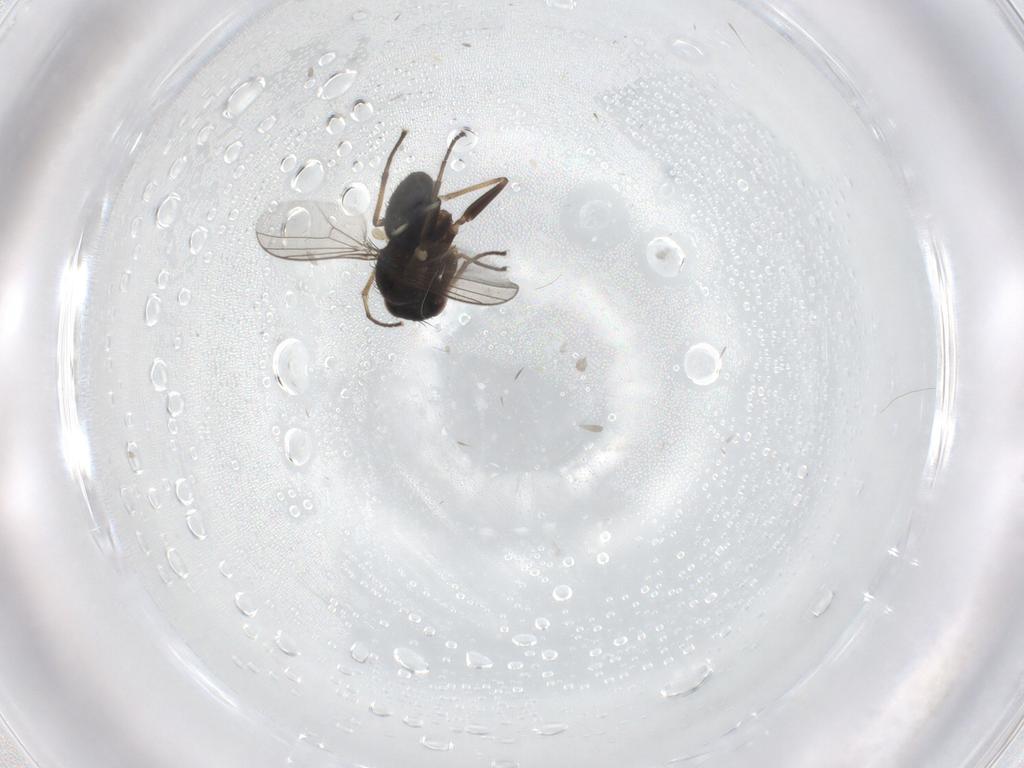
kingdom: Animalia
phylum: Arthropoda
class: Insecta
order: Diptera
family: Dolichopodidae
